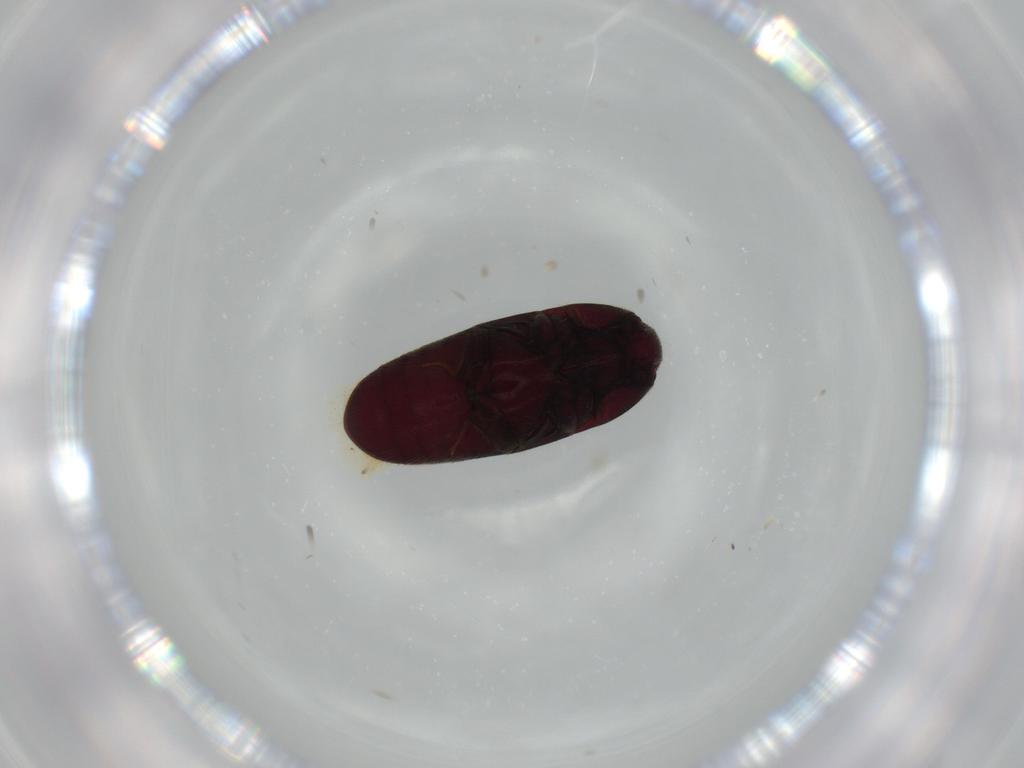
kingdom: Animalia
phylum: Arthropoda
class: Insecta
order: Coleoptera
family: Throscidae
